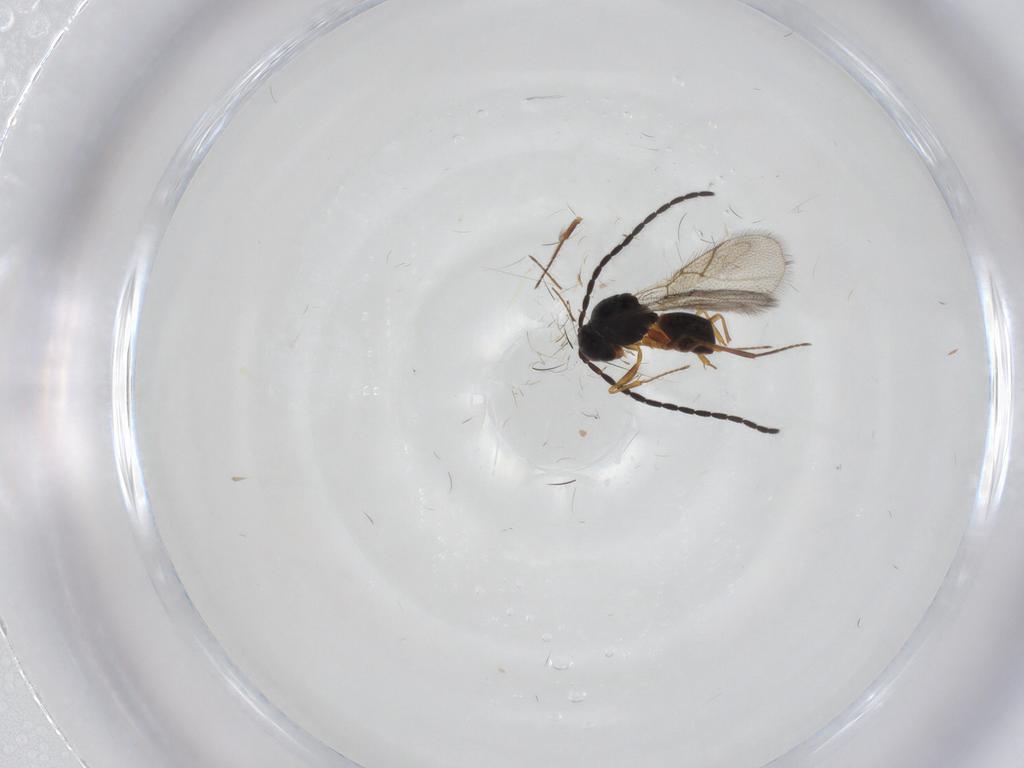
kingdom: Animalia
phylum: Arthropoda
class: Insecta
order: Hymenoptera
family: Figitidae
